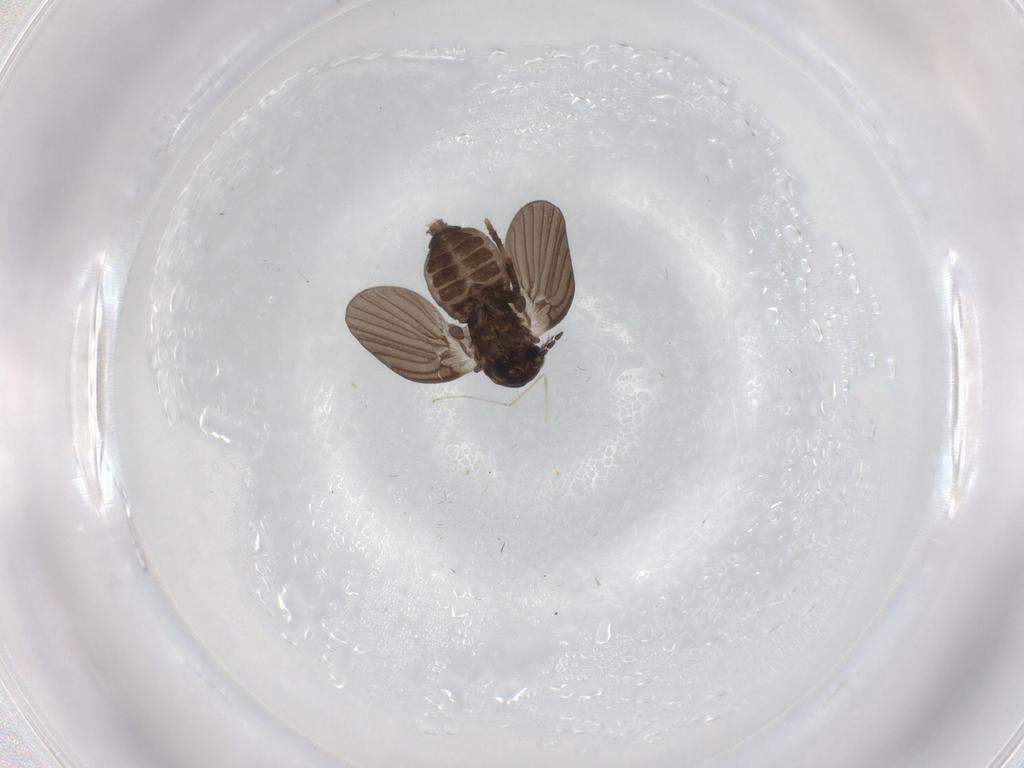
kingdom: Animalia
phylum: Arthropoda
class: Insecta
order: Diptera
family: Psychodidae
